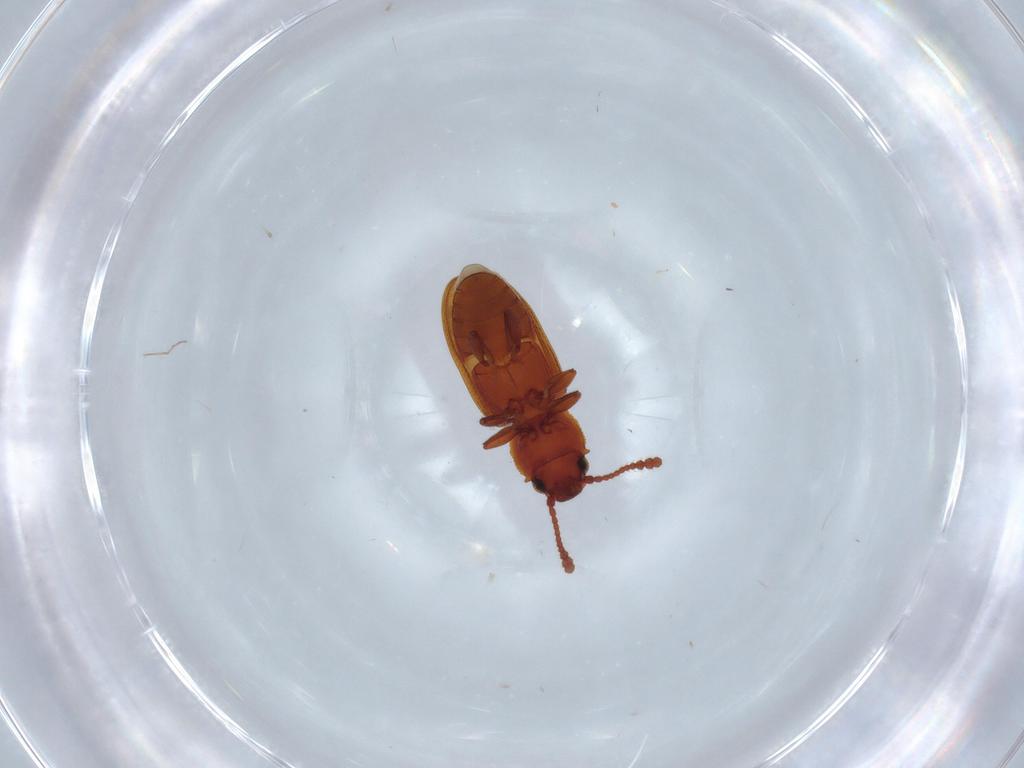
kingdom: Animalia
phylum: Arthropoda
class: Insecta
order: Coleoptera
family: Silvanidae
